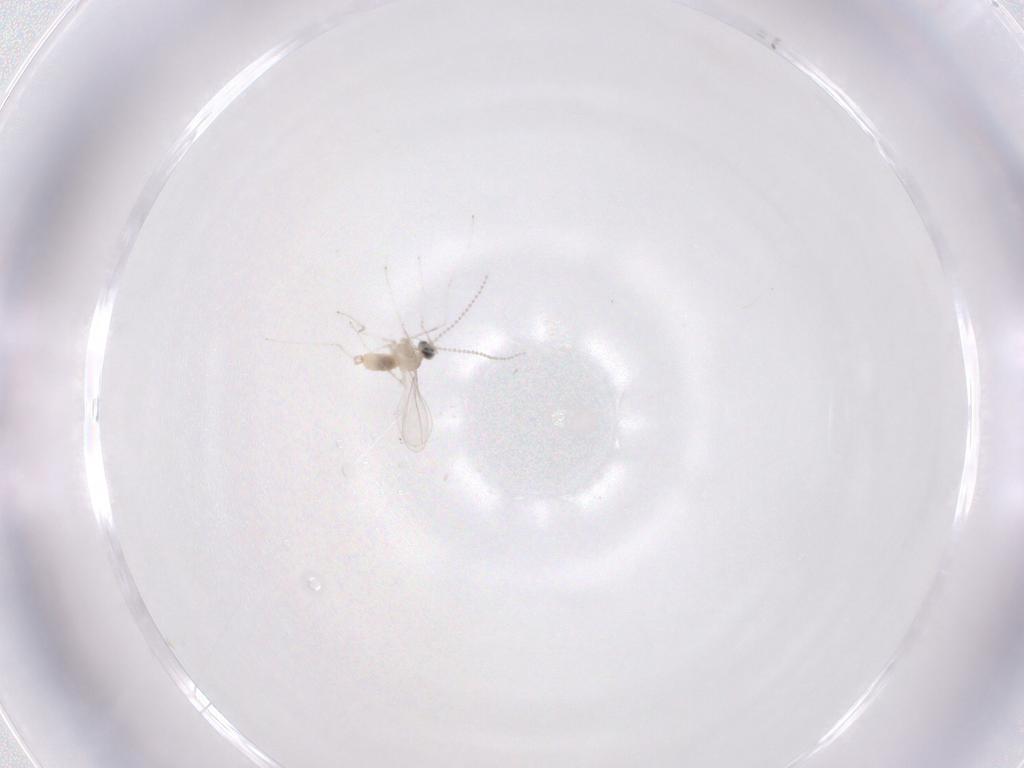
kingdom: Animalia
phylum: Arthropoda
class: Insecta
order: Diptera
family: Cecidomyiidae
